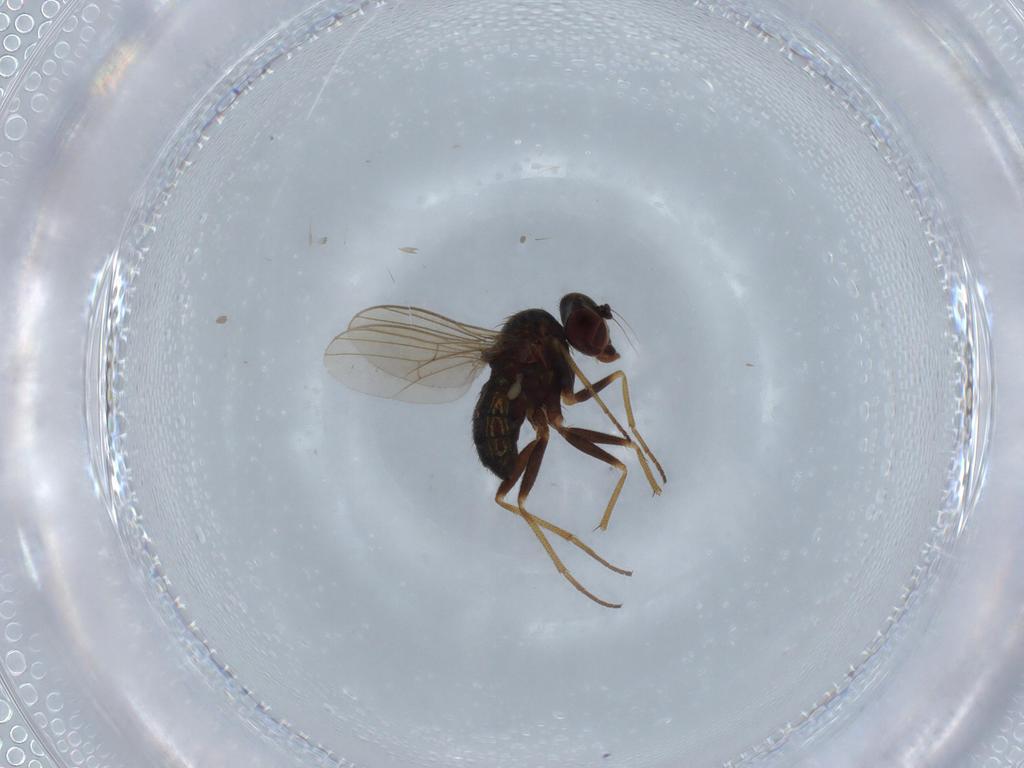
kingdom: Animalia
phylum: Arthropoda
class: Insecta
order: Diptera
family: Dolichopodidae
